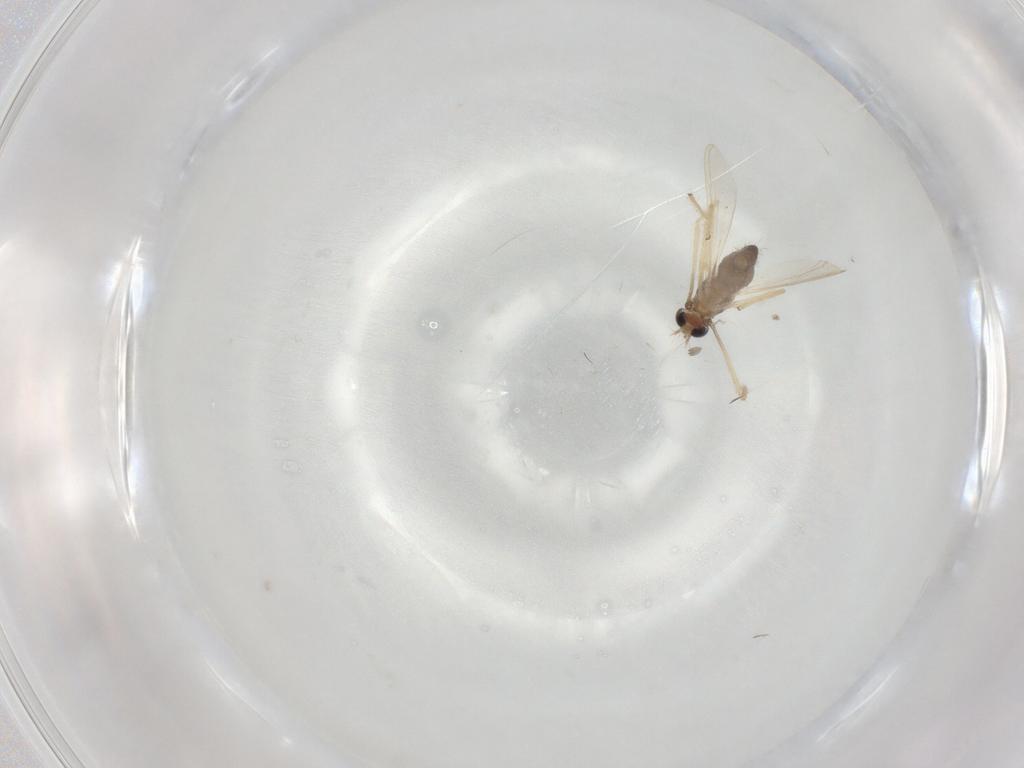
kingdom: Animalia
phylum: Arthropoda
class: Insecta
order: Diptera
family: Chironomidae
